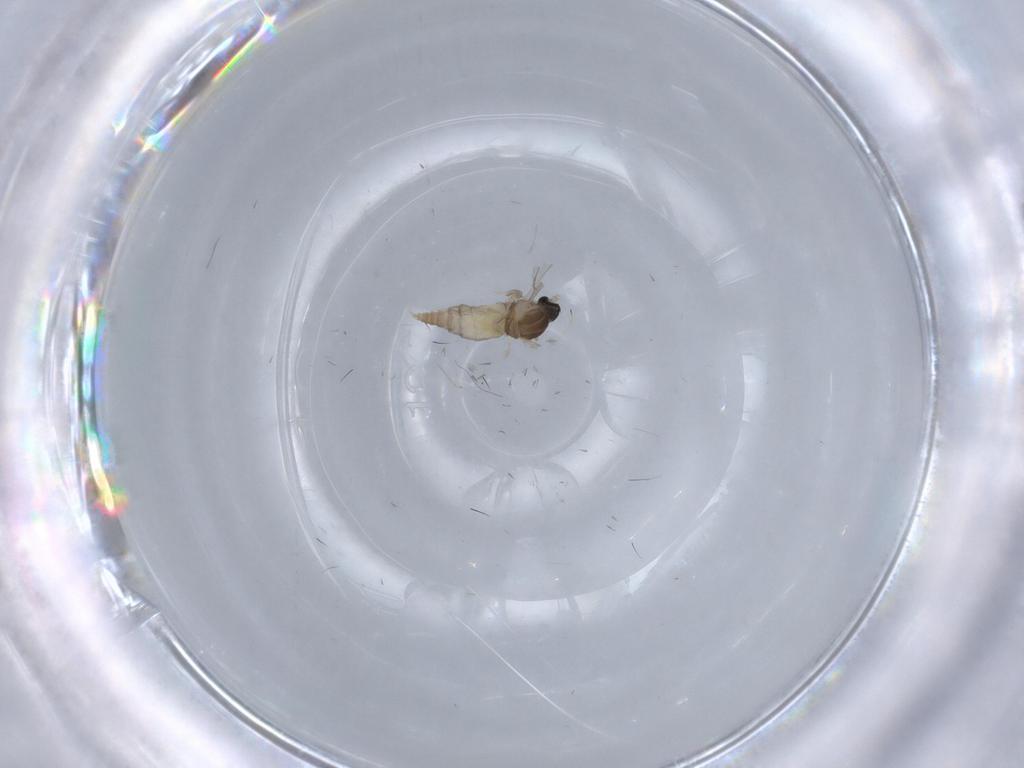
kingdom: Animalia
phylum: Arthropoda
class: Insecta
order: Diptera
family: Cecidomyiidae
